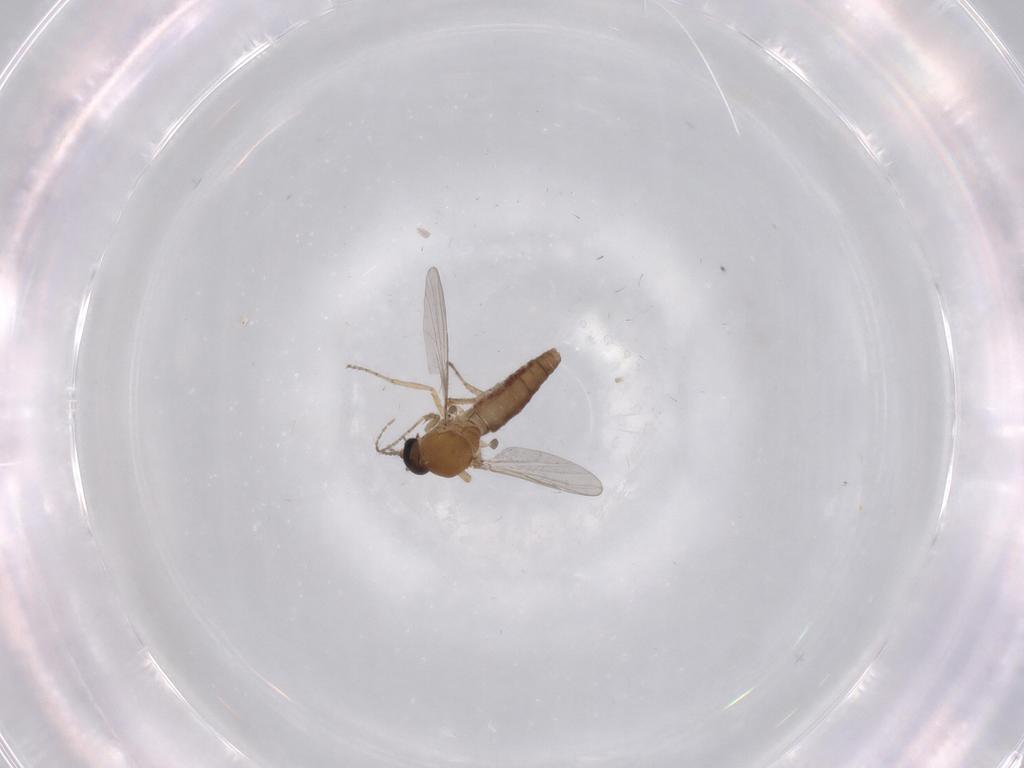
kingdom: Animalia
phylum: Arthropoda
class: Insecta
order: Diptera
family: Ceratopogonidae
